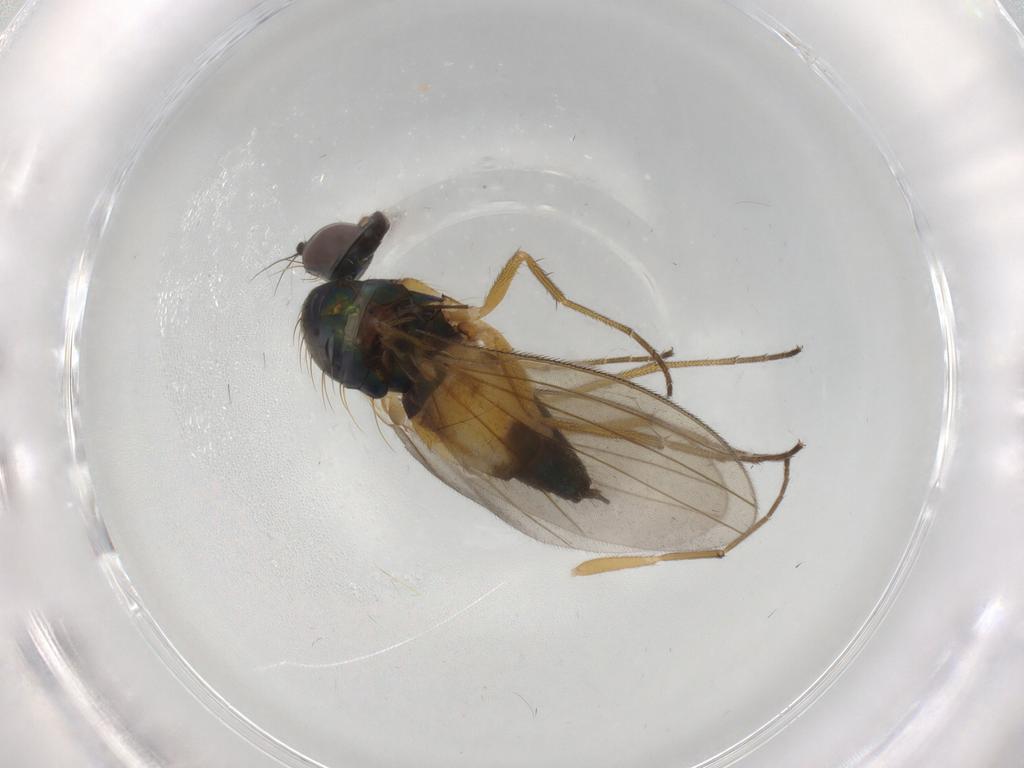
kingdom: Animalia
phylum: Arthropoda
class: Insecta
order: Diptera
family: Dolichopodidae
